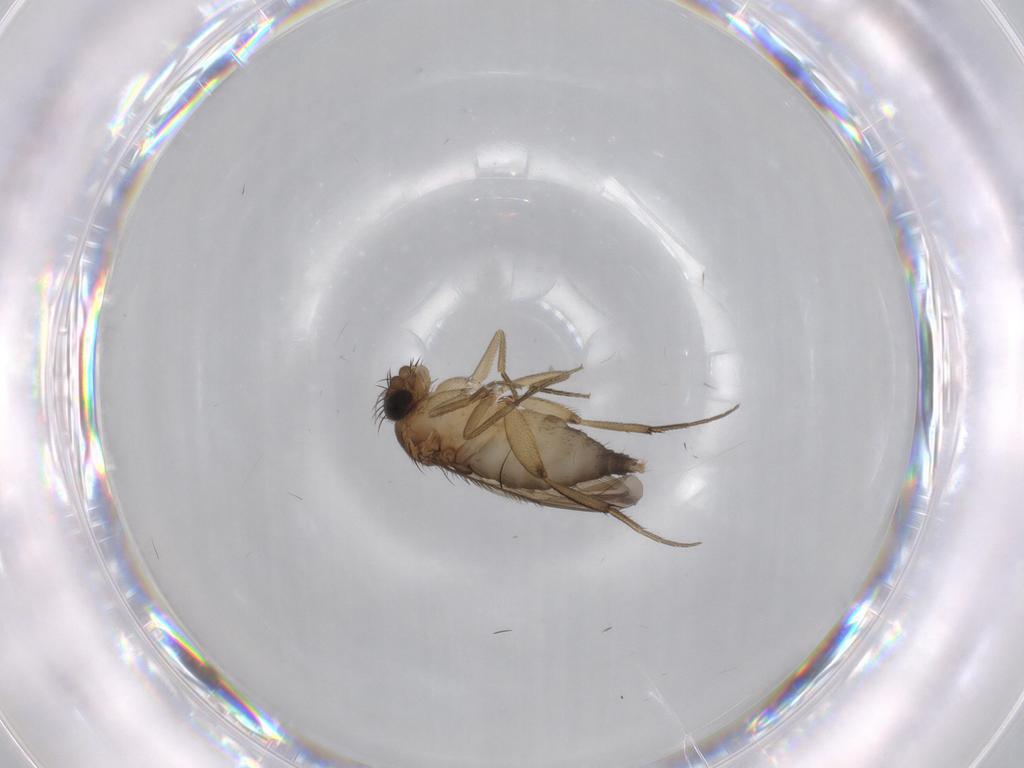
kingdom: Animalia
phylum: Arthropoda
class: Insecta
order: Diptera
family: Phoridae
